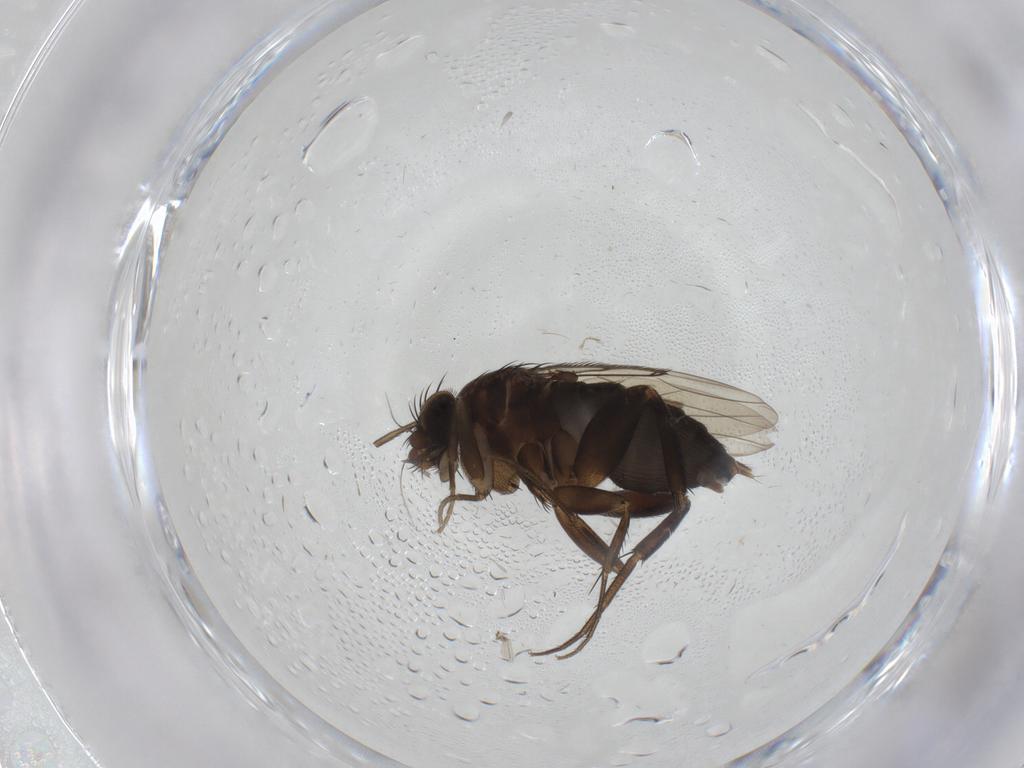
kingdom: Animalia
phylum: Arthropoda
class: Insecta
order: Diptera
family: Phoridae
